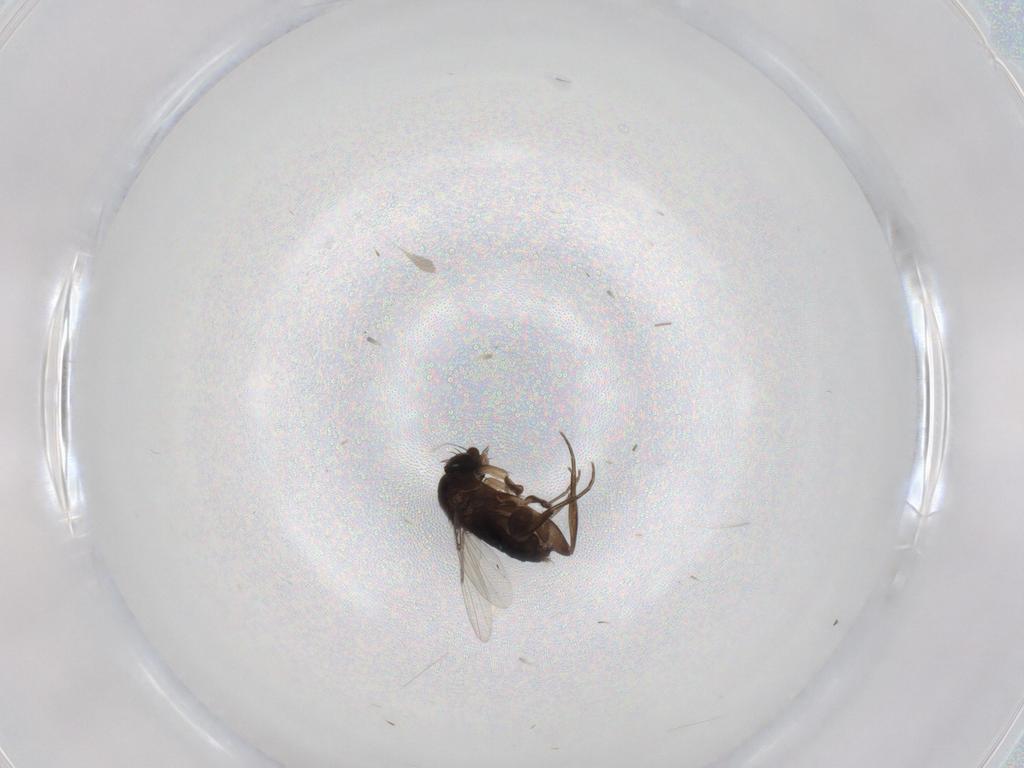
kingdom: Animalia
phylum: Arthropoda
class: Insecta
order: Diptera
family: Phoridae
